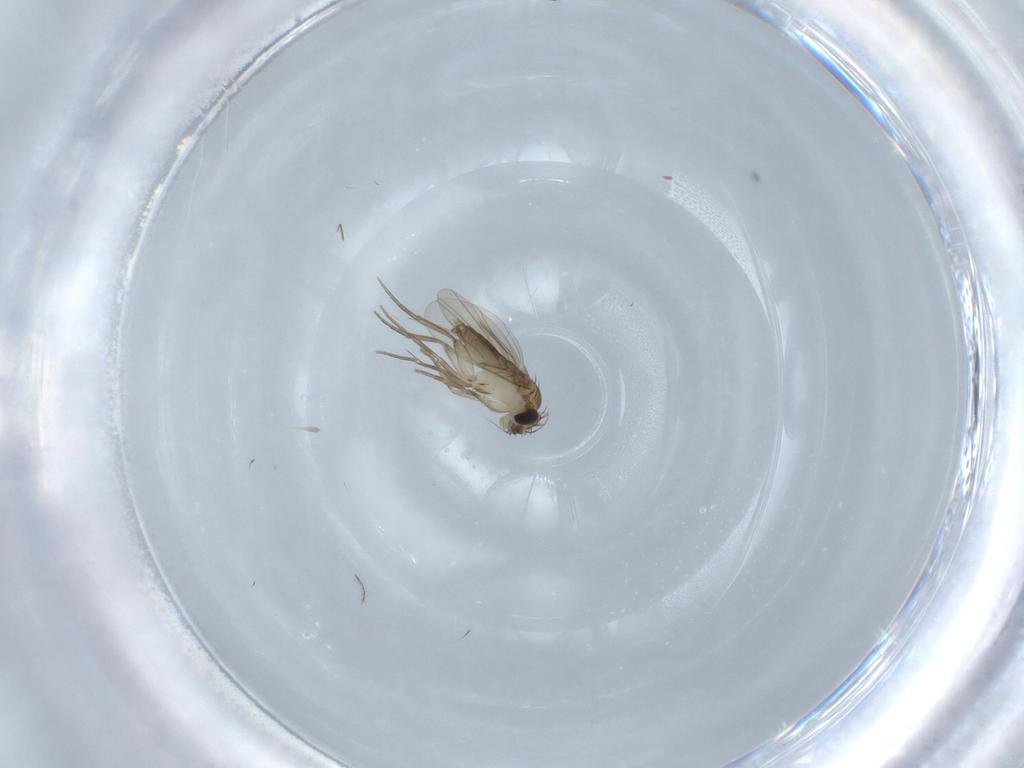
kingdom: Animalia
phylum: Arthropoda
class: Insecta
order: Diptera
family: Phoridae
